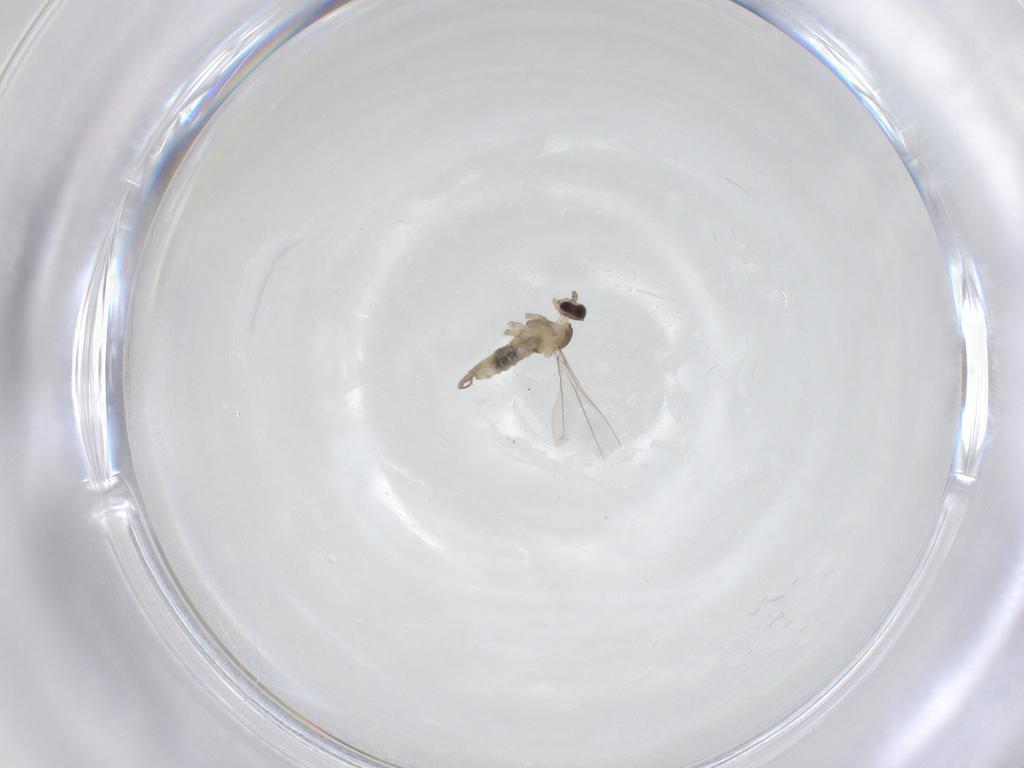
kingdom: Animalia
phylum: Arthropoda
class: Insecta
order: Diptera
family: Cecidomyiidae
